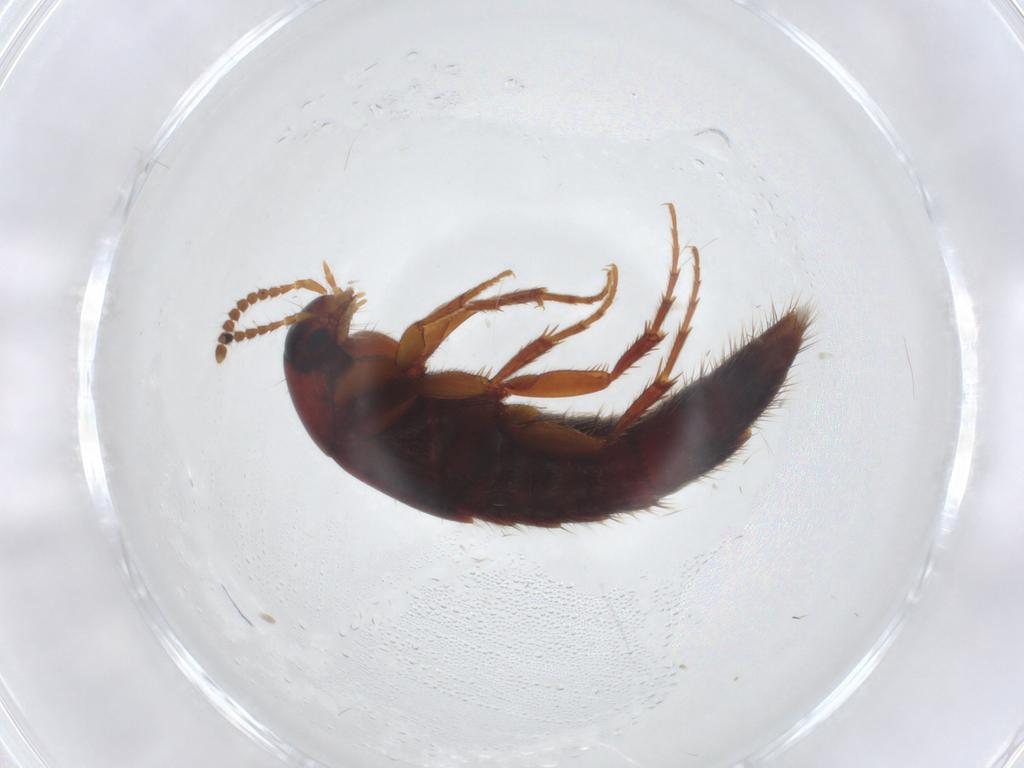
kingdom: Animalia
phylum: Arthropoda
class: Insecta
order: Coleoptera
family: Staphylinidae
